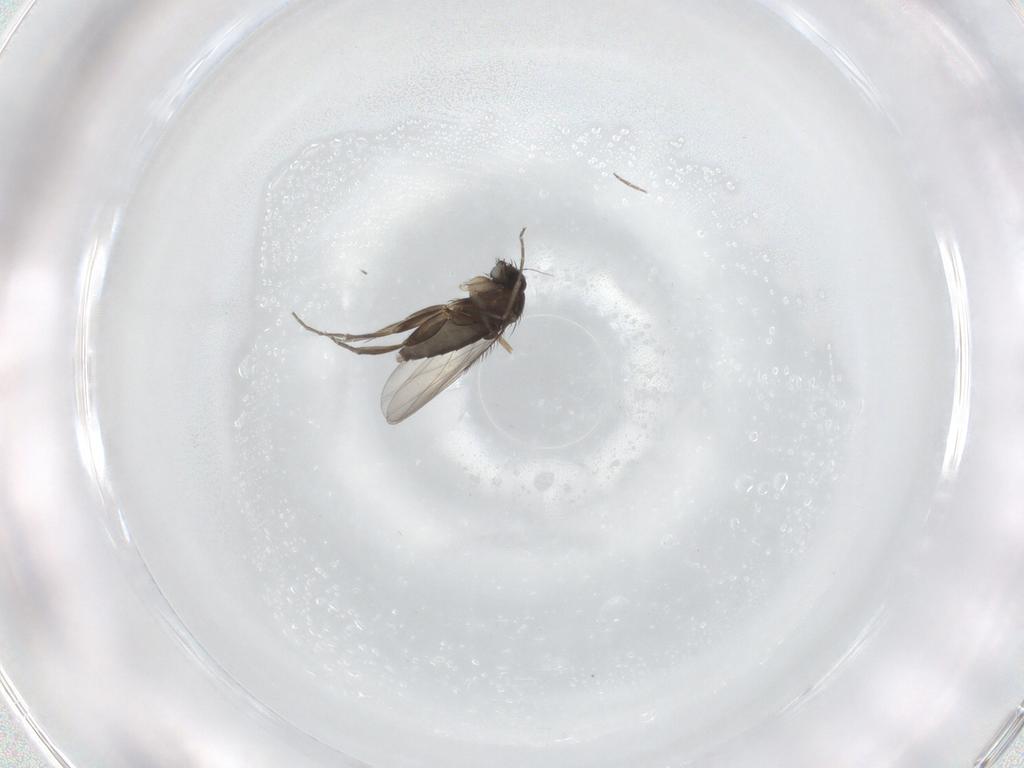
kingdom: Animalia
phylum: Arthropoda
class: Insecta
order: Diptera
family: Phoridae
